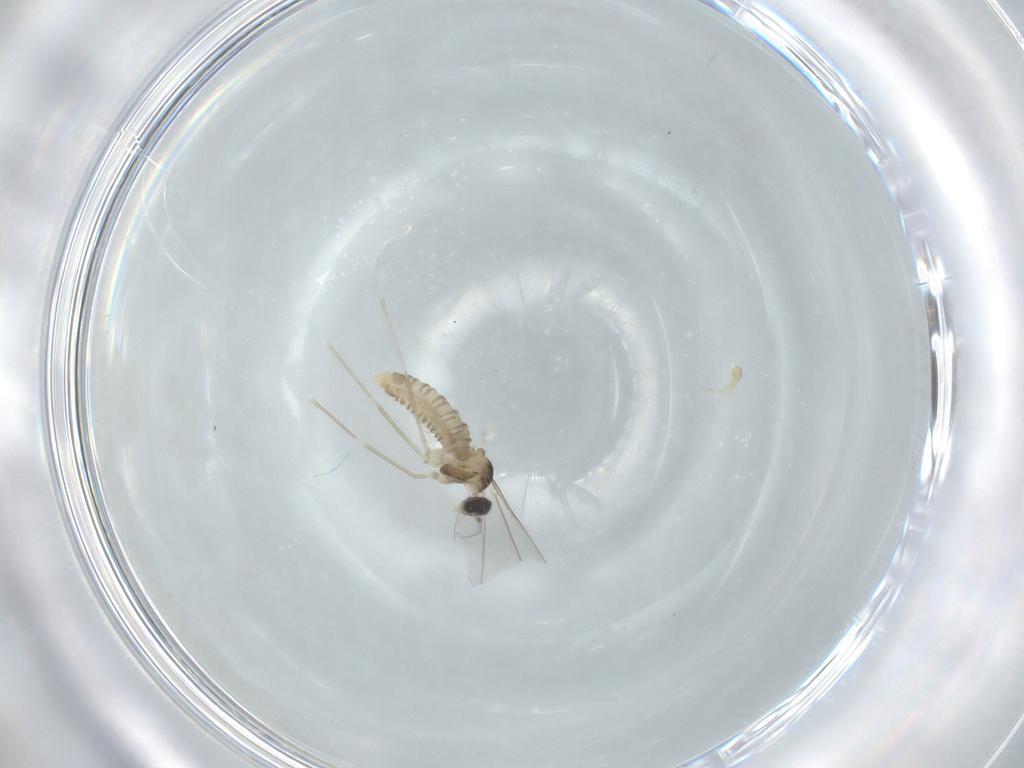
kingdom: Animalia
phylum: Arthropoda
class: Insecta
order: Diptera
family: Cecidomyiidae
